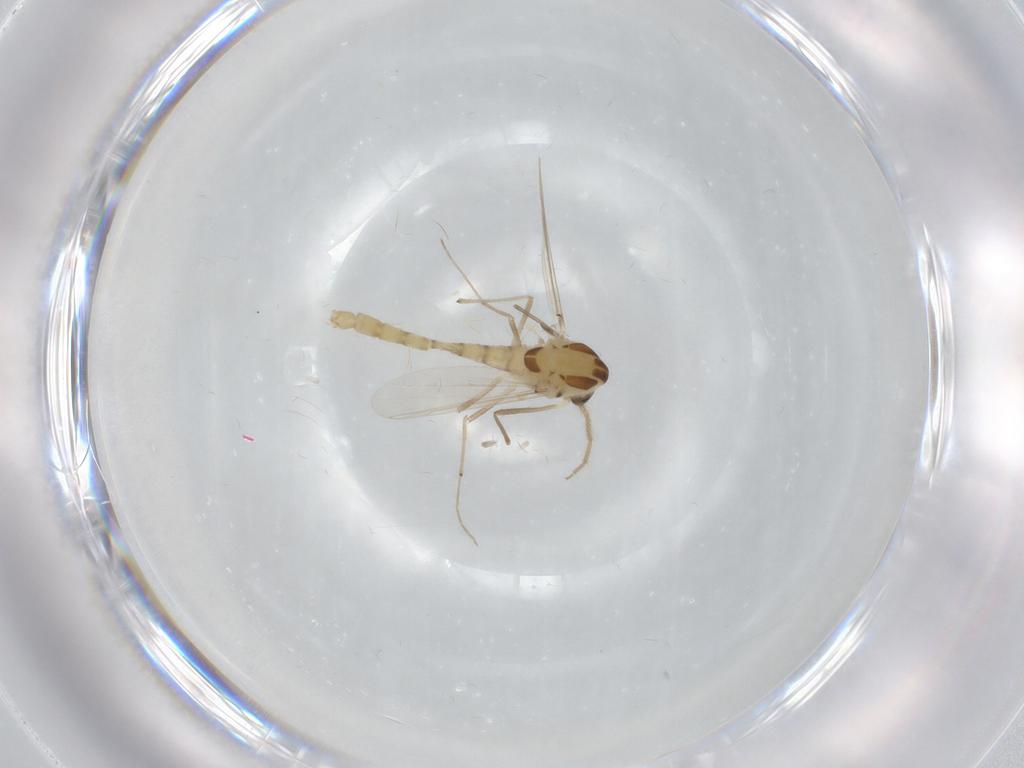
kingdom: Animalia
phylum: Arthropoda
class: Insecta
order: Diptera
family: Chironomidae
